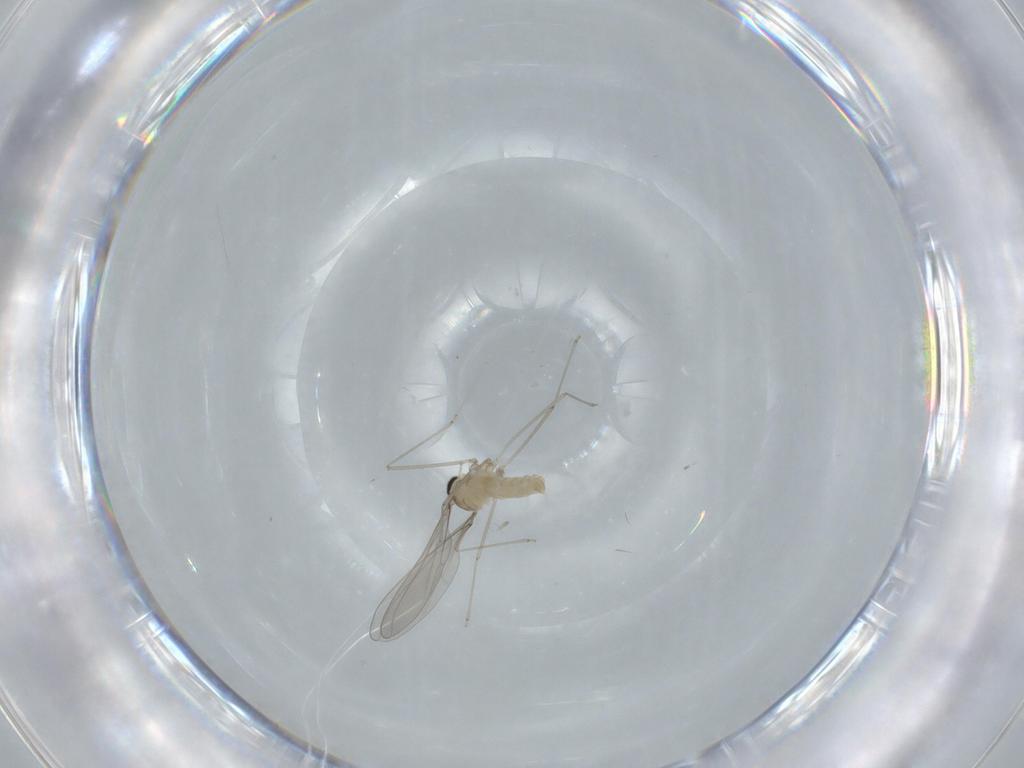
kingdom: Animalia
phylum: Arthropoda
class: Insecta
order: Diptera
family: Cecidomyiidae
